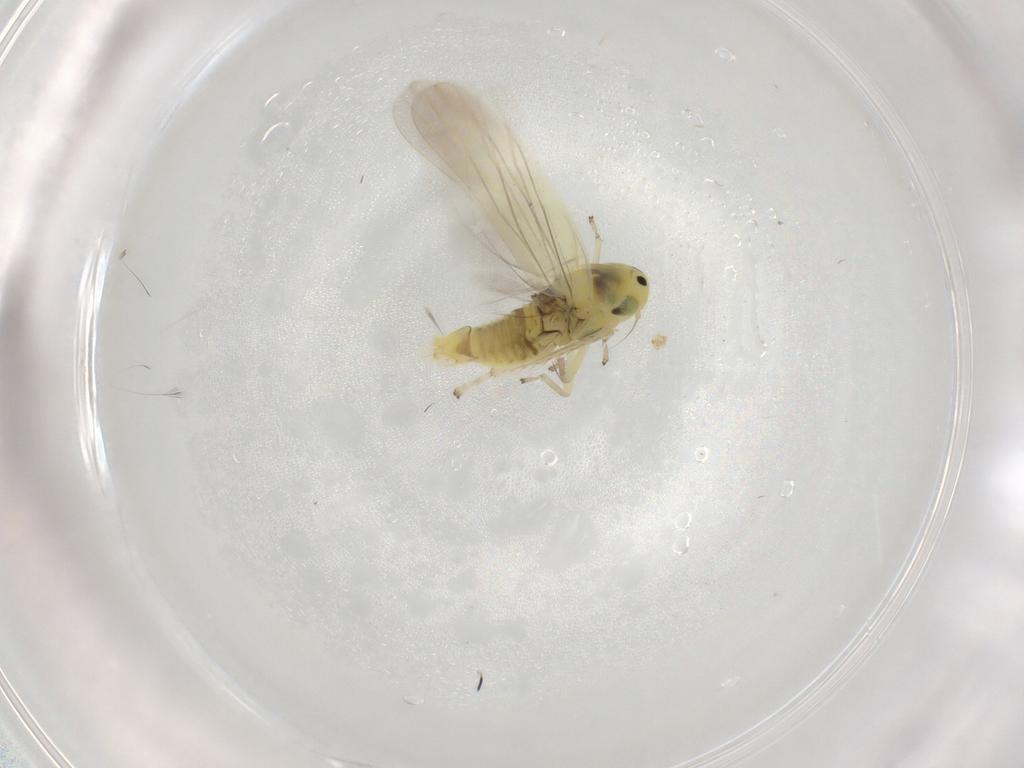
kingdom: Animalia
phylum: Arthropoda
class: Insecta
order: Hemiptera
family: Cicadellidae
